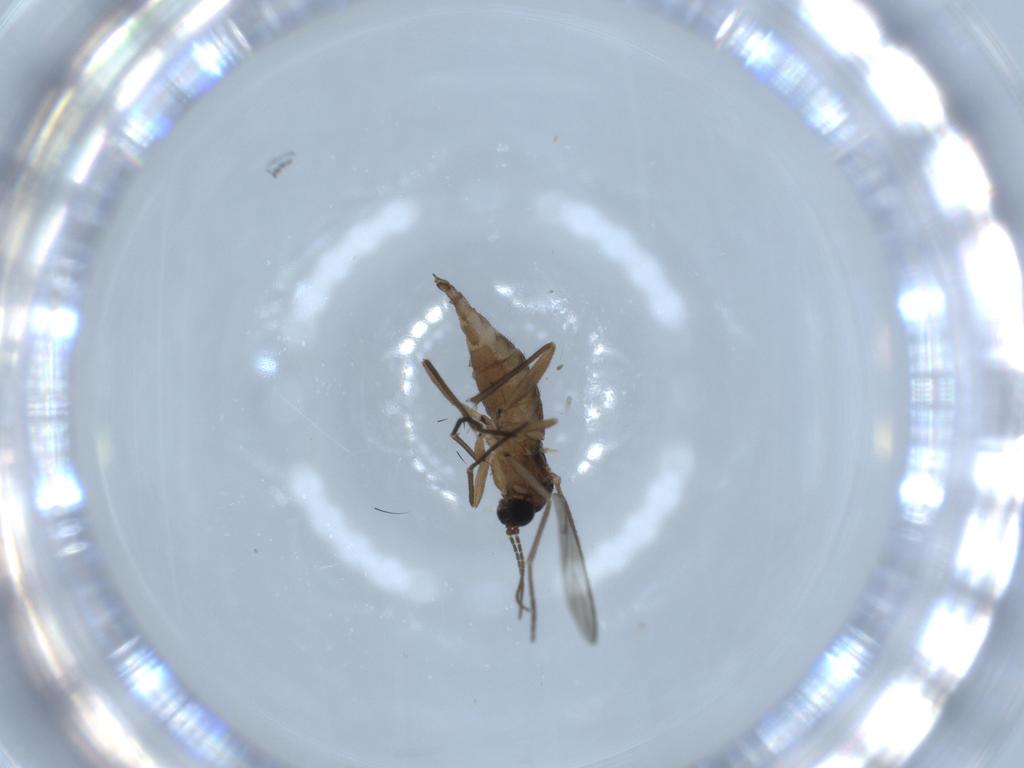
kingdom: Animalia
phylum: Arthropoda
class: Insecta
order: Diptera
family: Sciaridae
